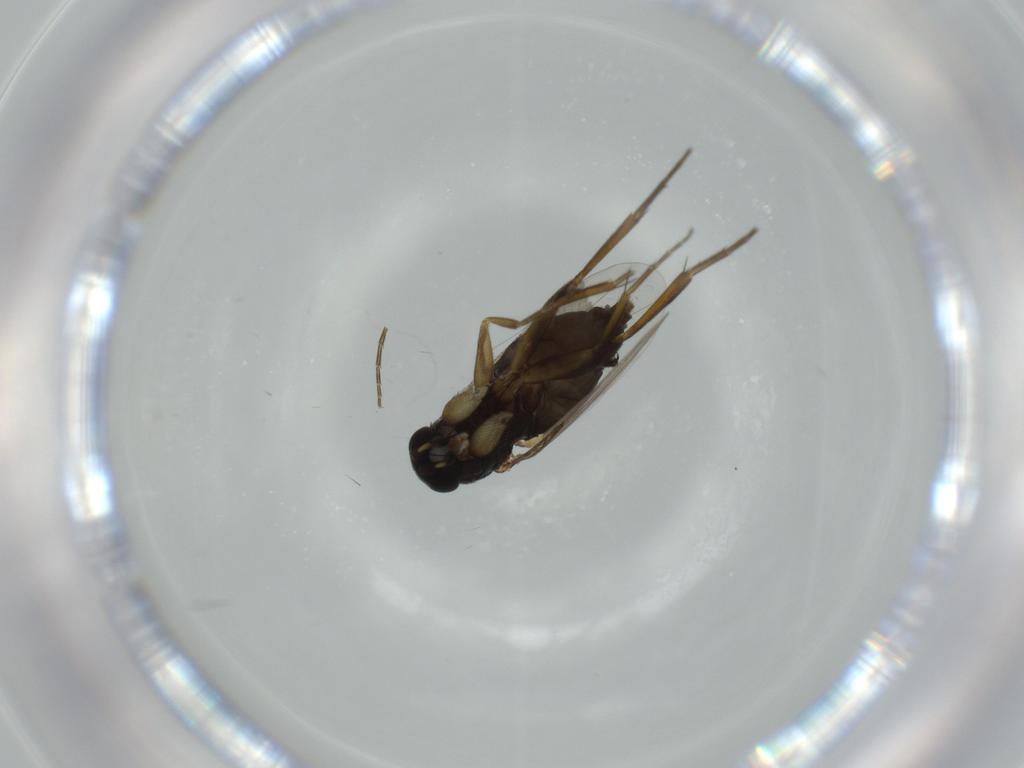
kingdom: Animalia
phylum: Arthropoda
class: Insecta
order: Diptera
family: Phoridae
